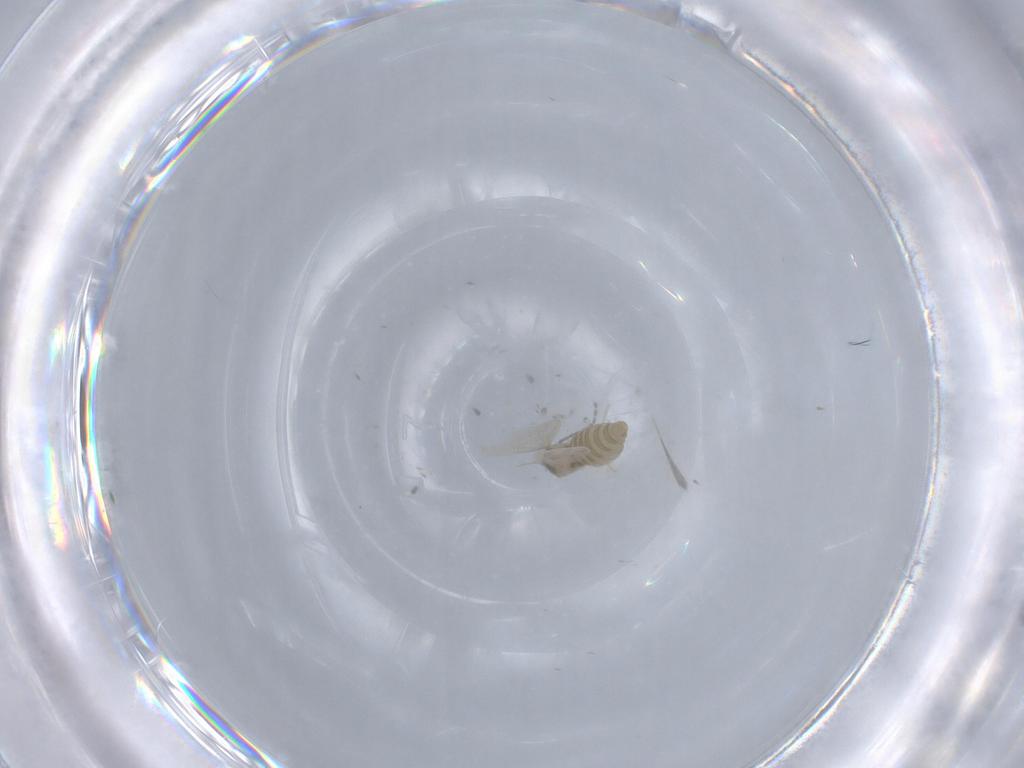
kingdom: Animalia
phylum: Arthropoda
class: Insecta
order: Diptera
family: Cecidomyiidae
